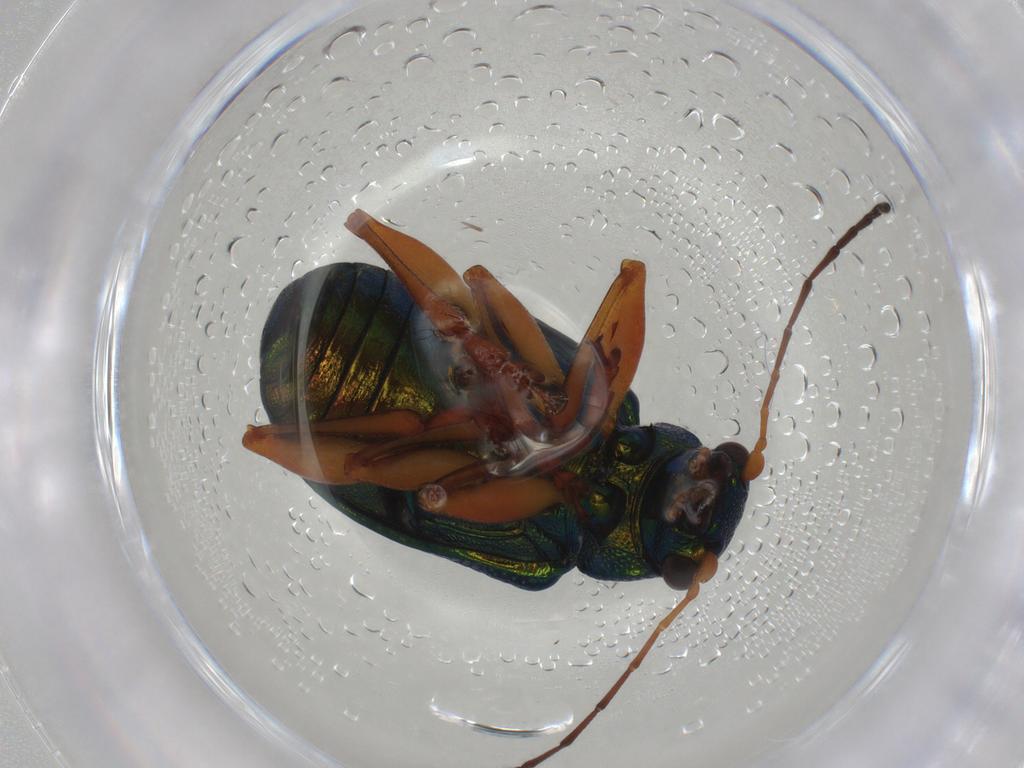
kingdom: Animalia
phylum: Arthropoda
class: Insecta
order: Coleoptera
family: Chrysomelidae
